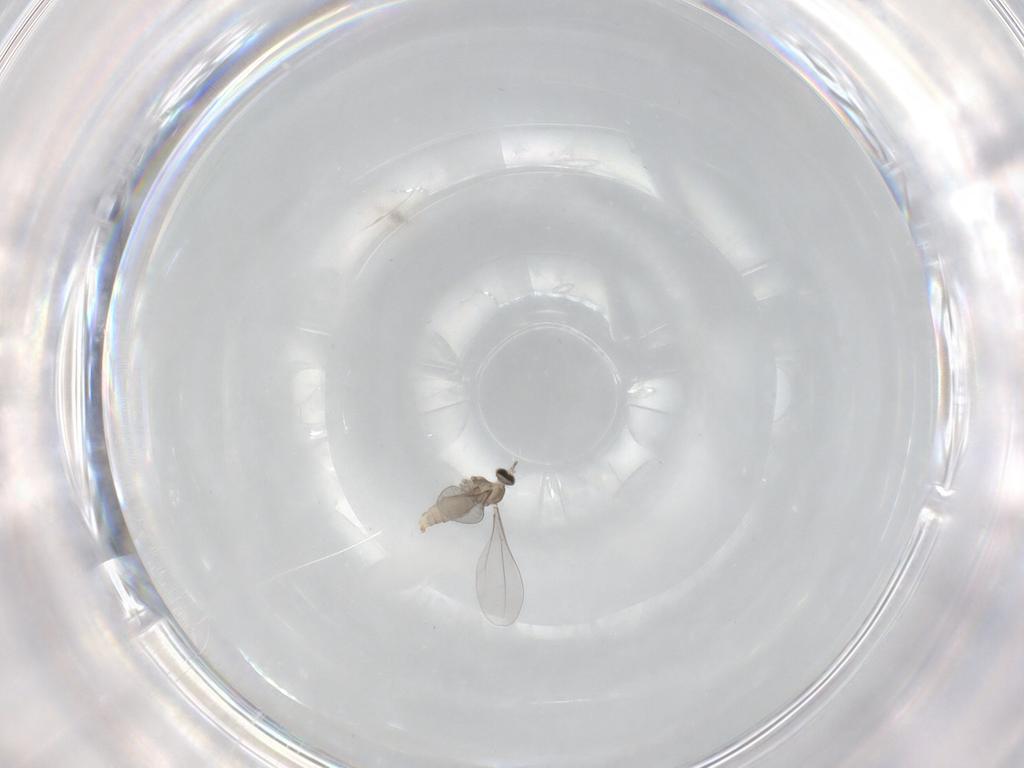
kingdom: Animalia
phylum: Arthropoda
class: Insecta
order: Diptera
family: Cecidomyiidae
